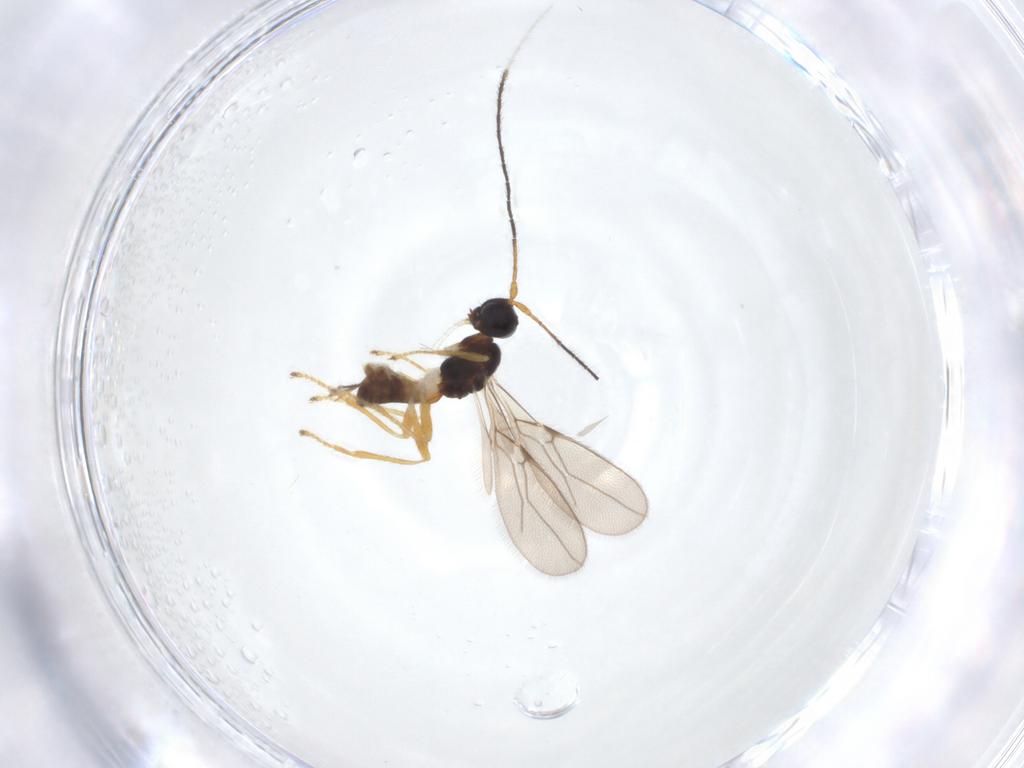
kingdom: Animalia
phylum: Arthropoda
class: Insecta
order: Hymenoptera
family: Braconidae
